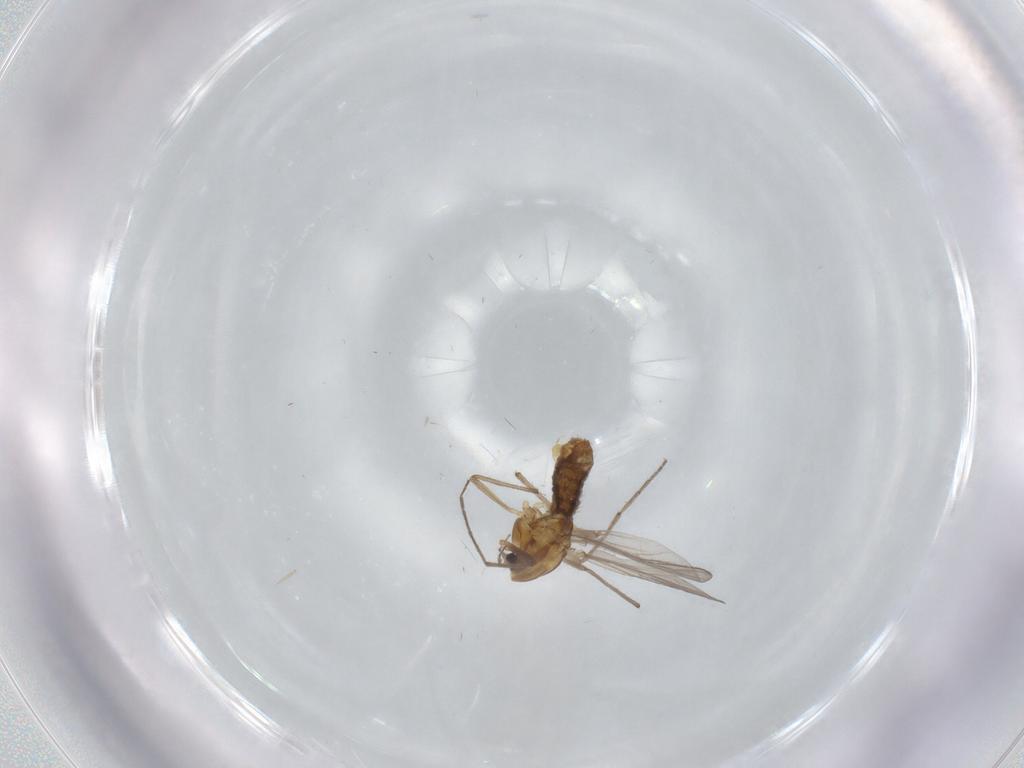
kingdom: Animalia
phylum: Arthropoda
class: Insecta
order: Diptera
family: Chironomidae
